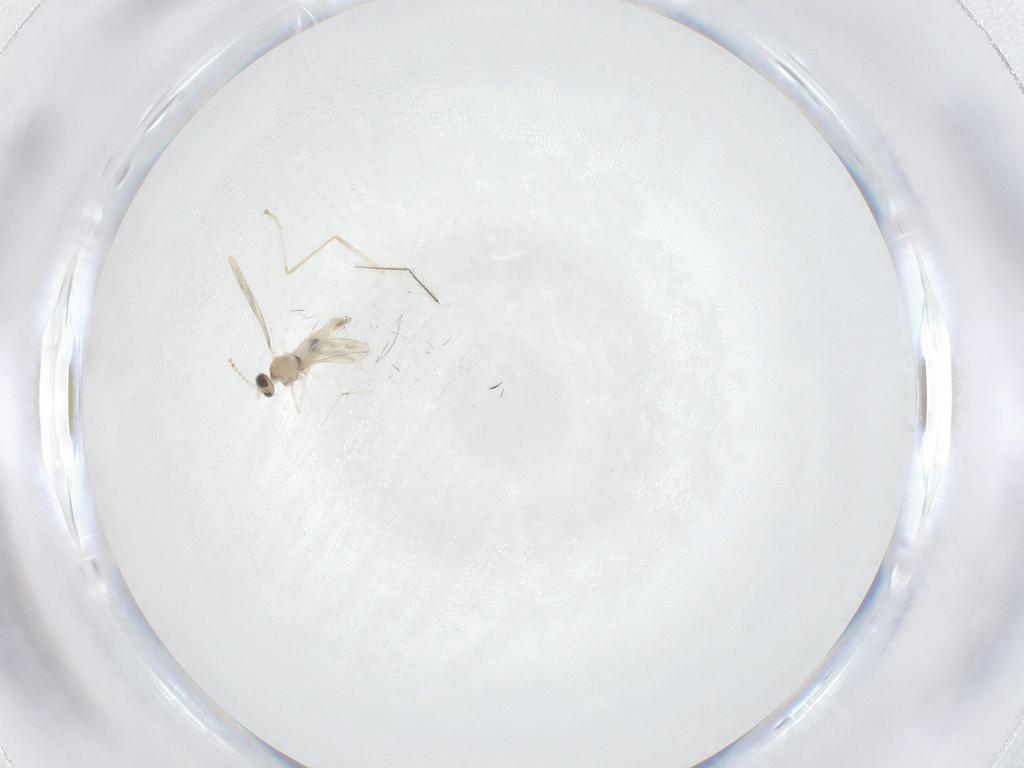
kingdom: Animalia
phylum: Arthropoda
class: Insecta
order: Diptera
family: Cecidomyiidae
